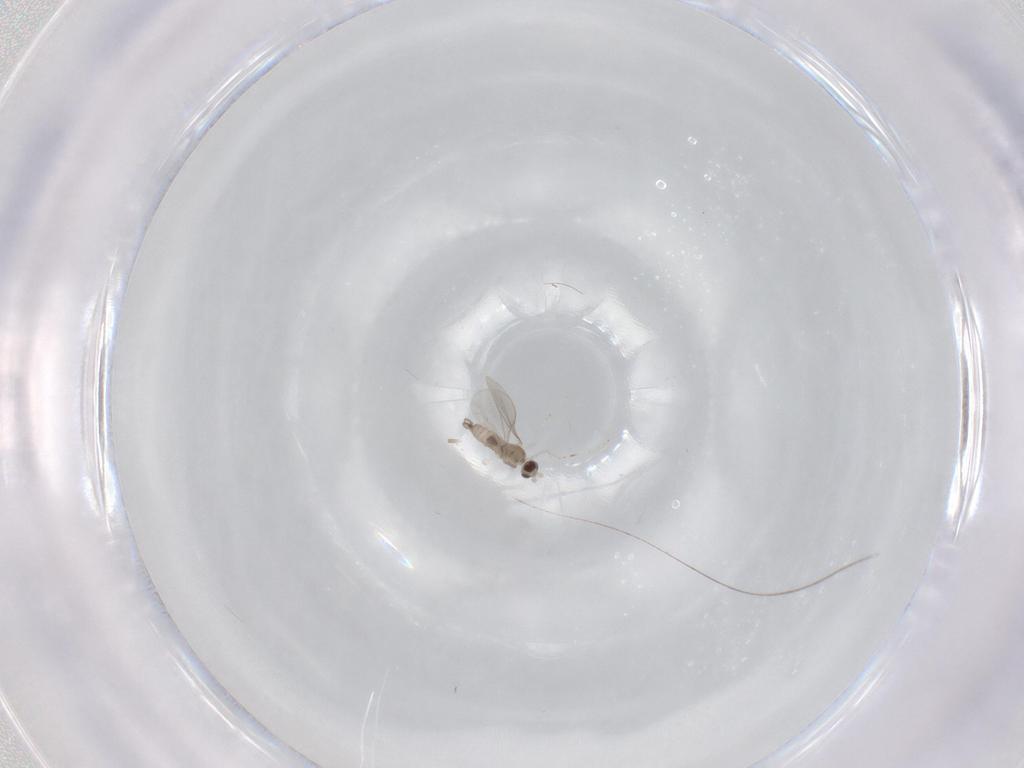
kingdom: Animalia
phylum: Arthropoda
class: Insecta
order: Diptera
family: Cecidomyiidae
